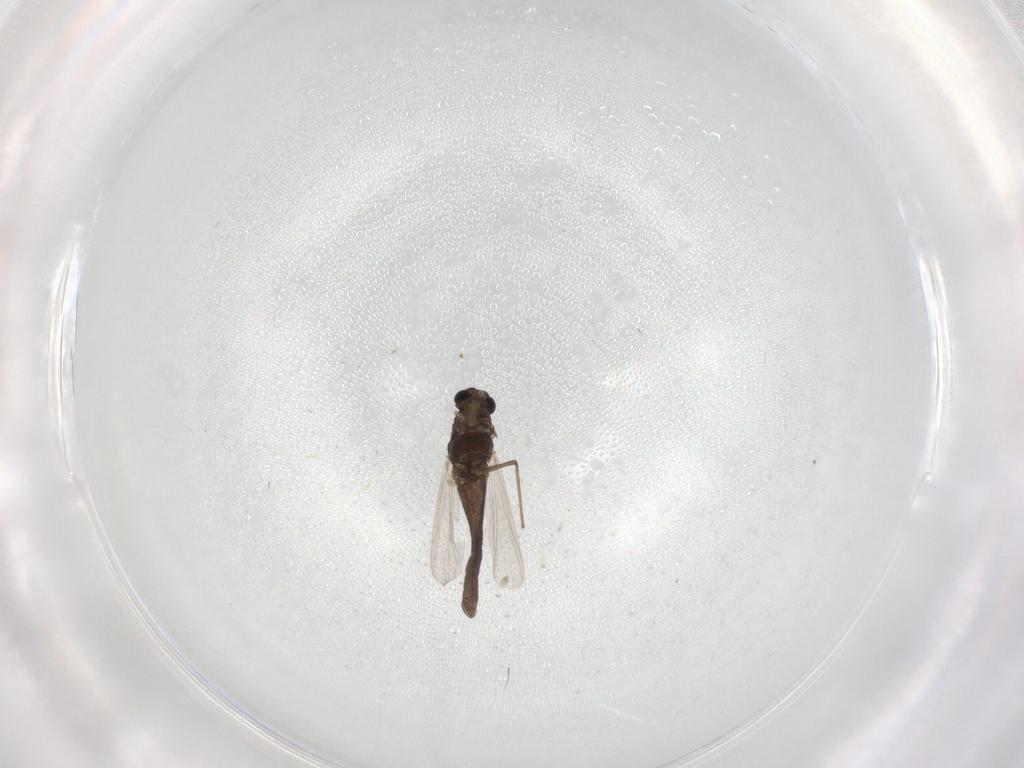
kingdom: Animalia
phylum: Arthropoda
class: Insecta
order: Diptera
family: Chironomidae
